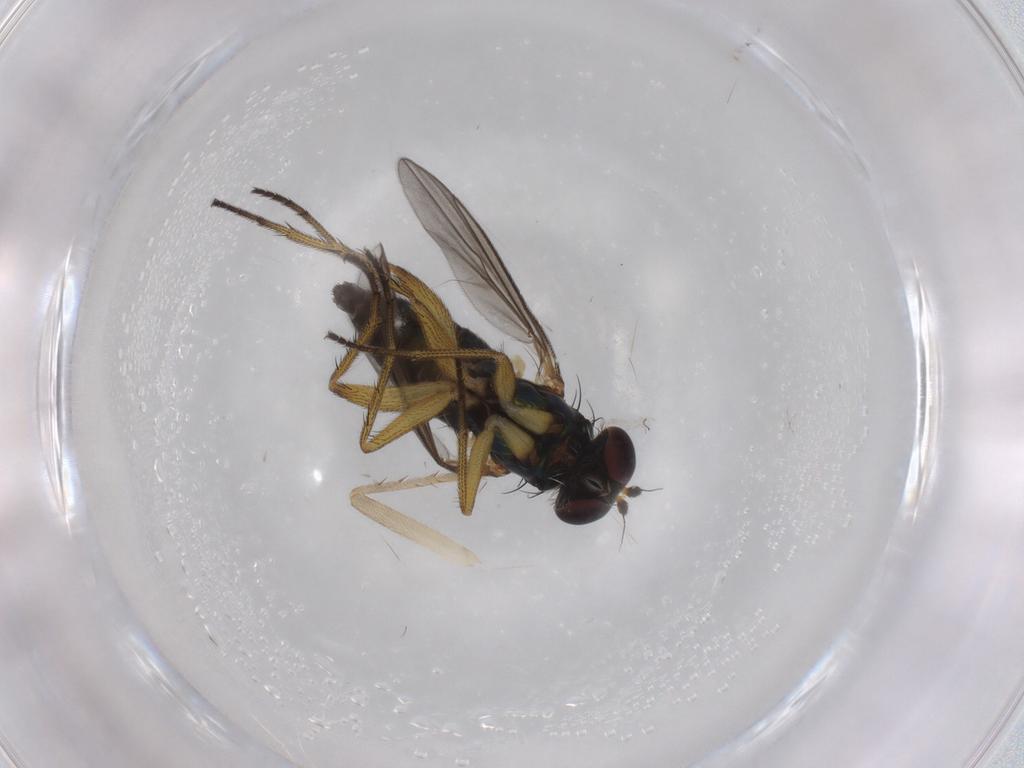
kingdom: Animalia
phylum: Arthropoda
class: Insecta
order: Diptera
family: Dolichopodidae
